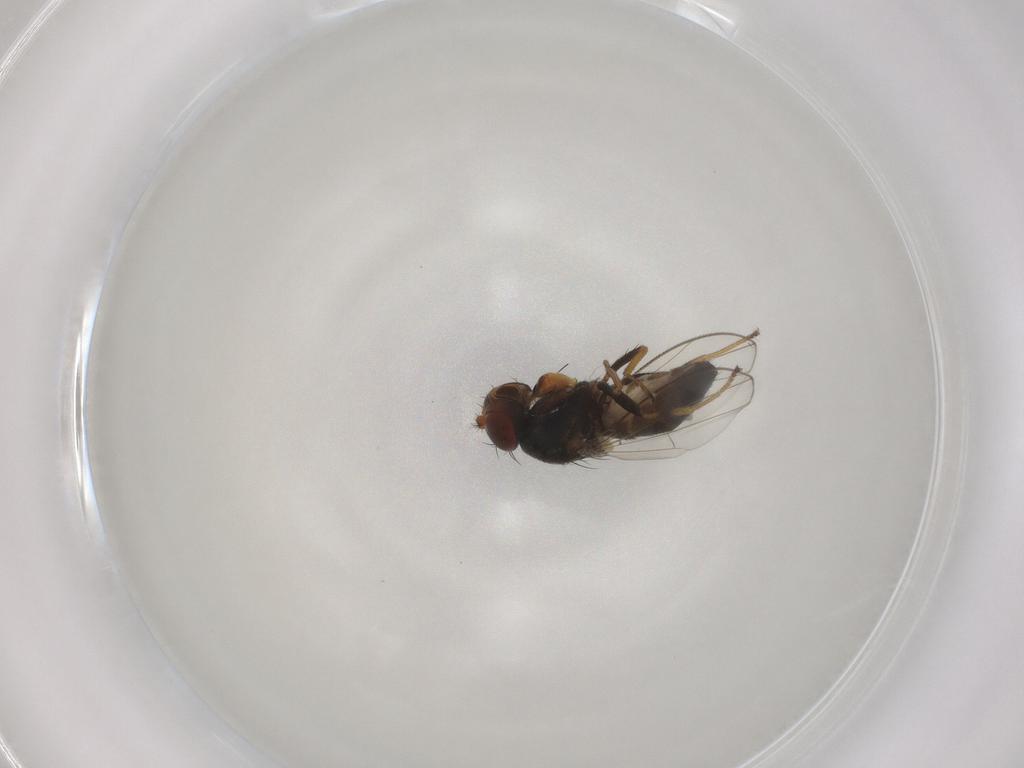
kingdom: Animalia
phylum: Arthropoda
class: Insecta
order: Diptera
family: Ephydridae
